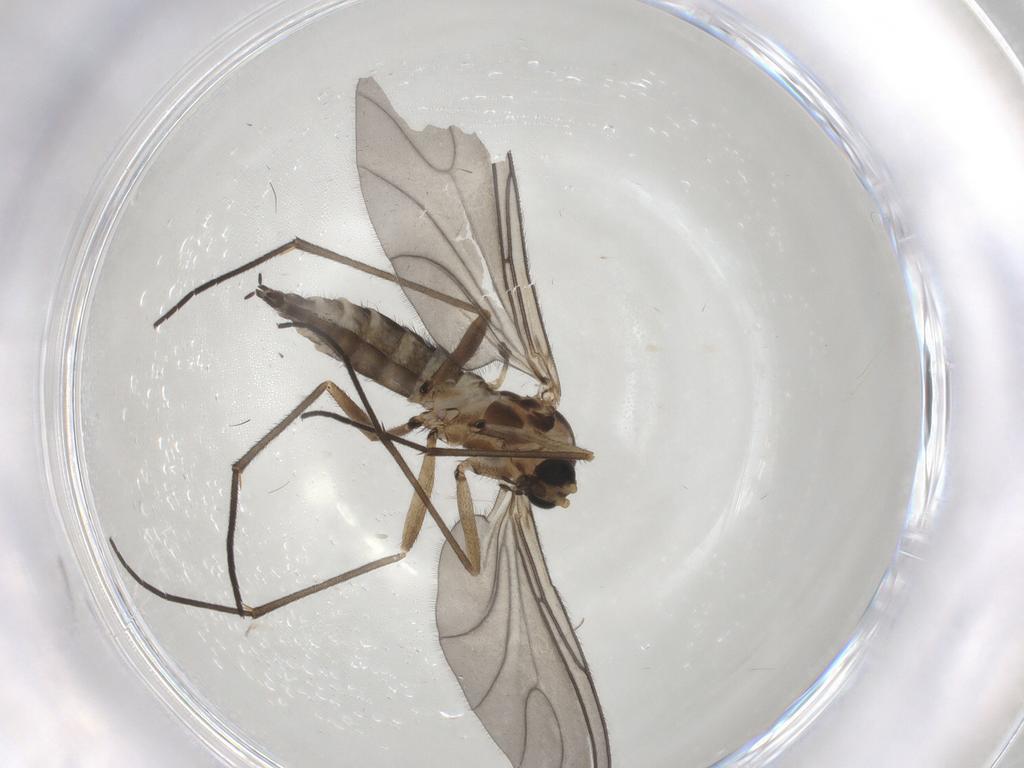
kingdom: Animalia
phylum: Arthropoda
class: Insecta
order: Diptera
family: Sciaridae
